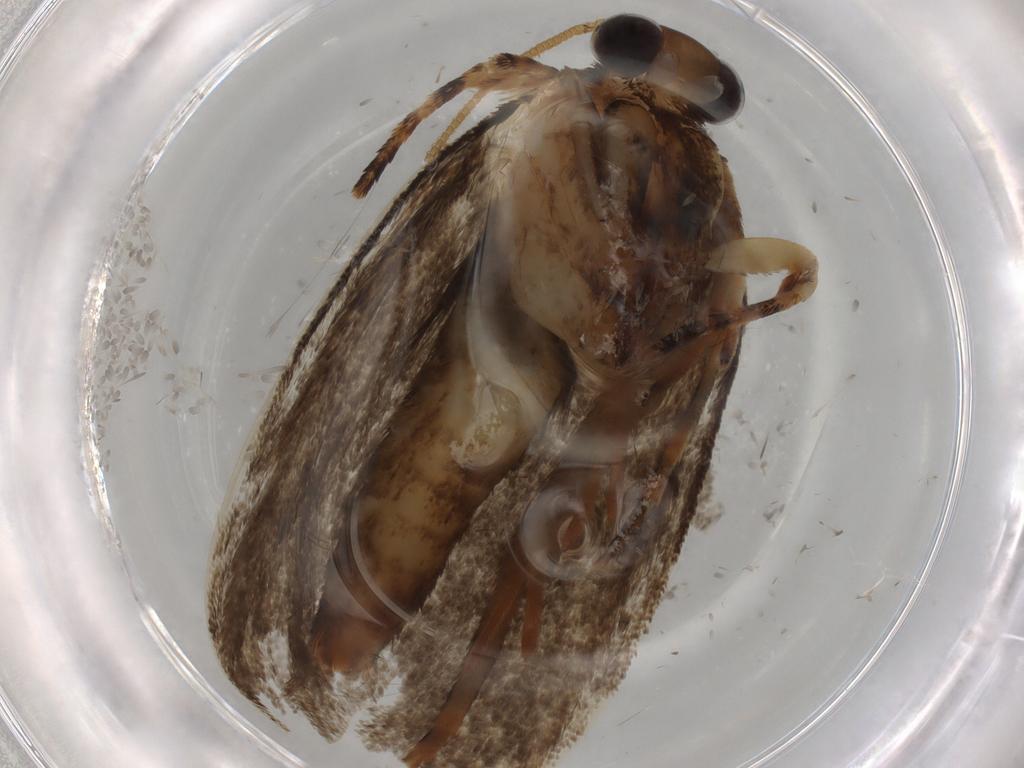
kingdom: Animalia
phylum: Arthropoda
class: Insecta
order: Lepidoptera
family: Tineidae
